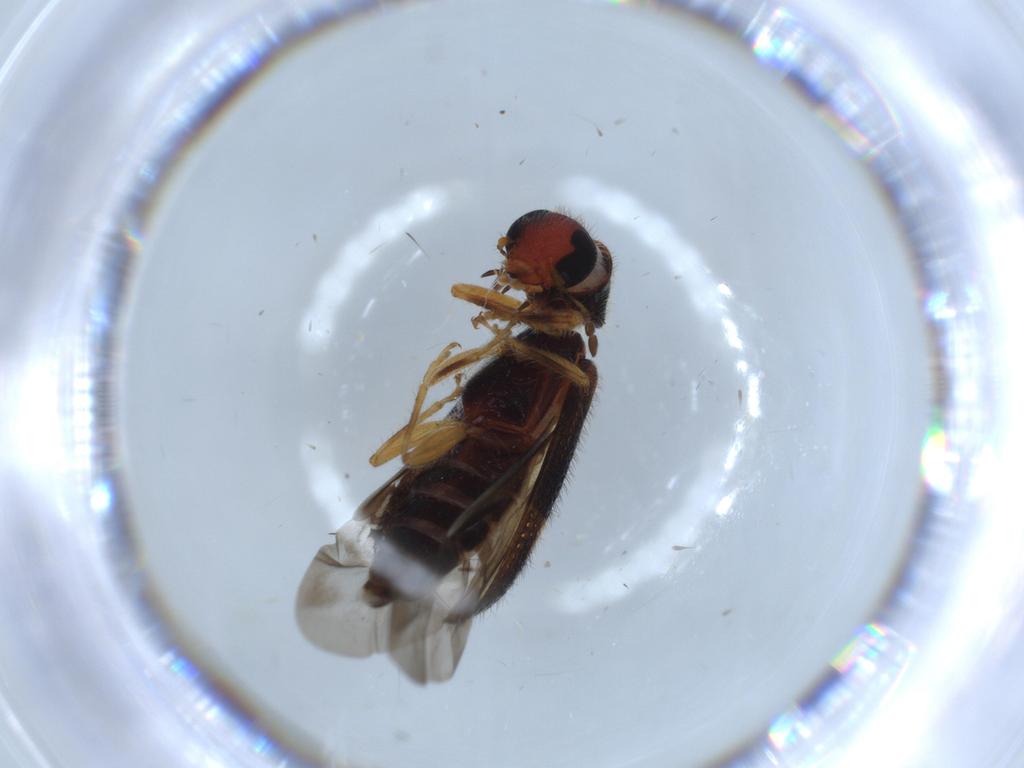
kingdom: Animalia
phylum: Arthropoda
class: Insecta
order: Coleoptera
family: Cleridae
